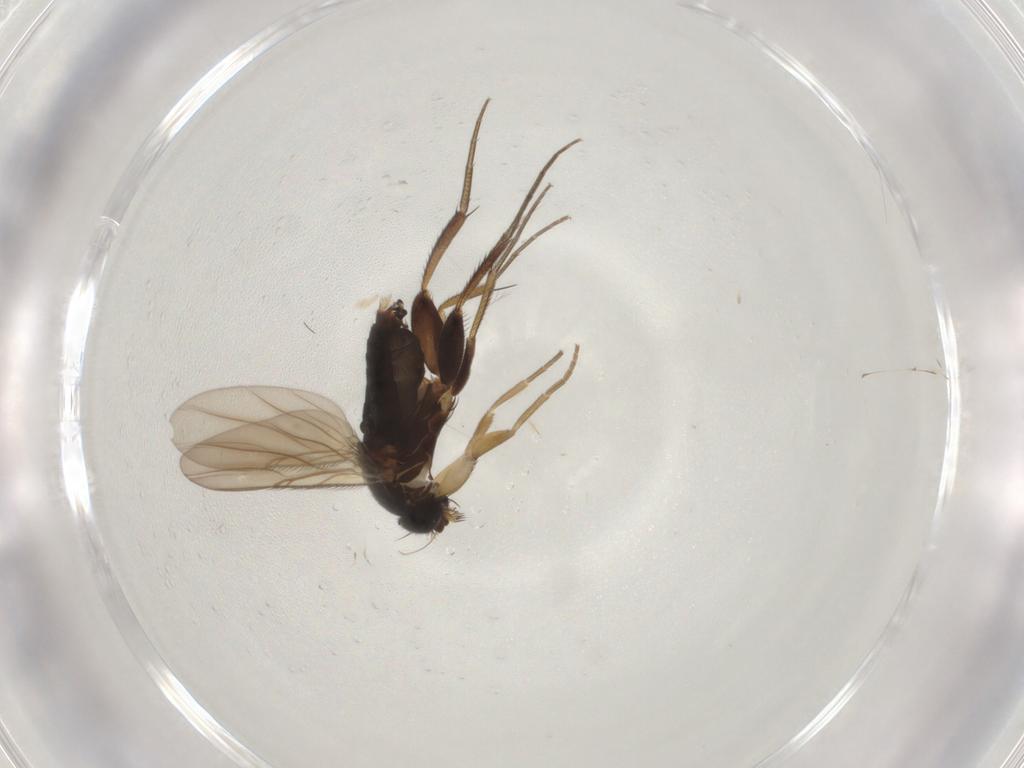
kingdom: Animalia
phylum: Arthropoda
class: Insecta
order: Diptera
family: Phoridae
